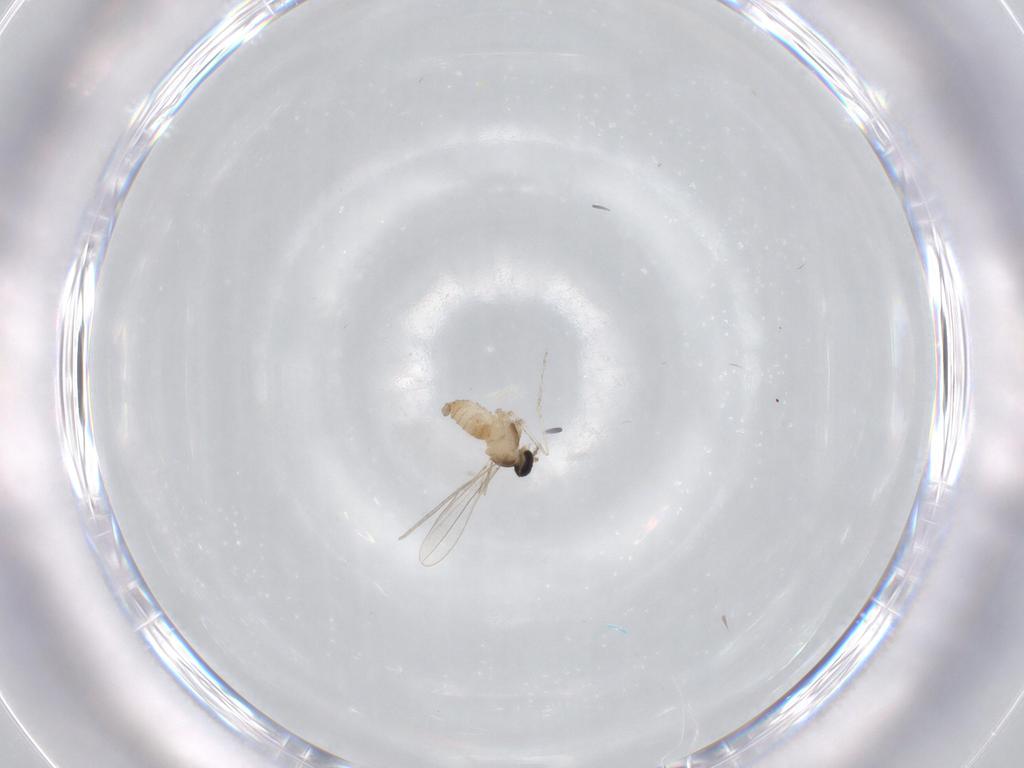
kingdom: Animalia
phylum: Arthropoda
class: Insecta
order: Diptera
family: Cecidomyiidae
